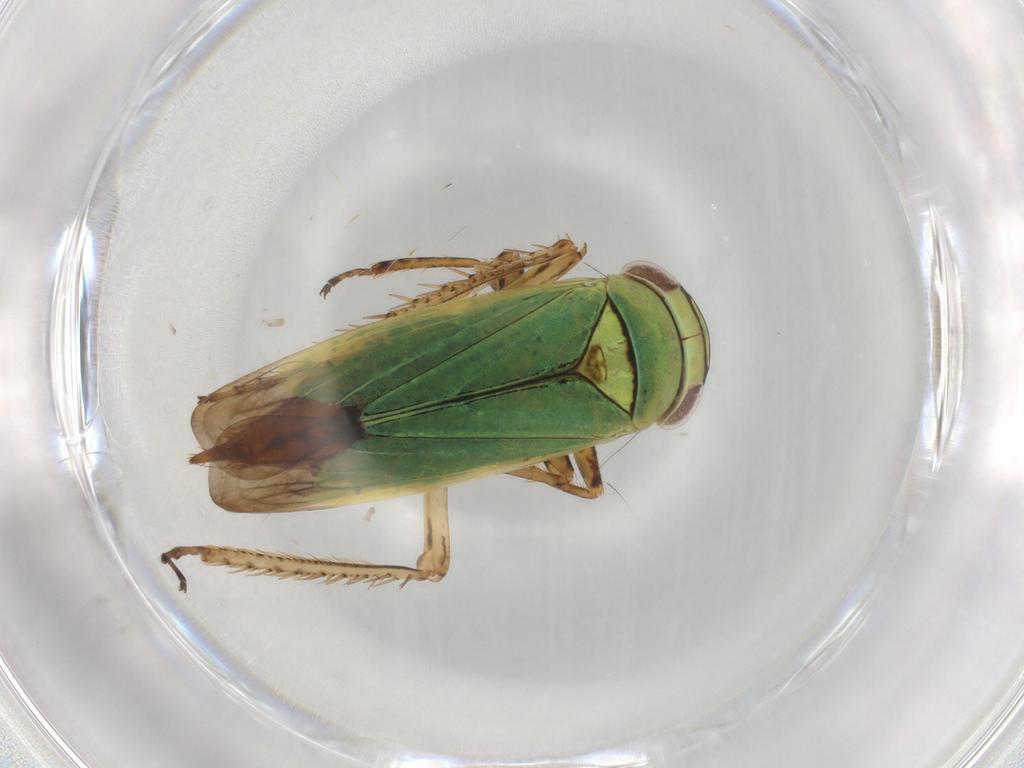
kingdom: Animalia
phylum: Arthropoda
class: Insecta
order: Hemiptera
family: Cicadellidae
